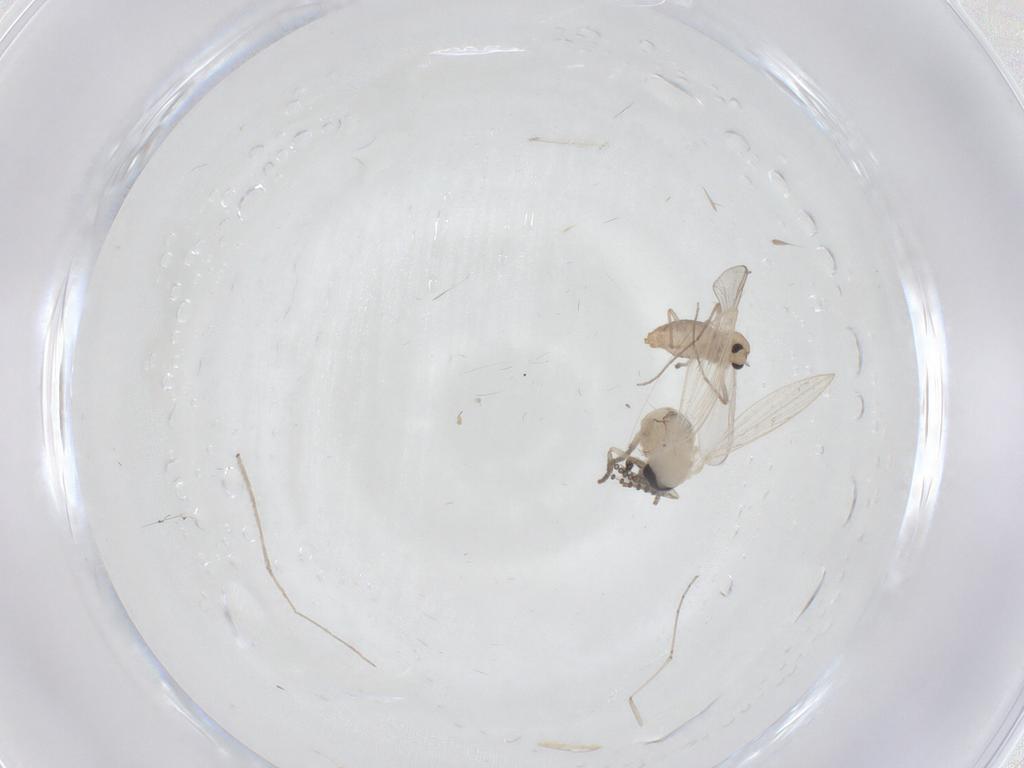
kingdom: Animalia
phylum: Arthropoda
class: Insecta
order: Diptera
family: Chironomidae
